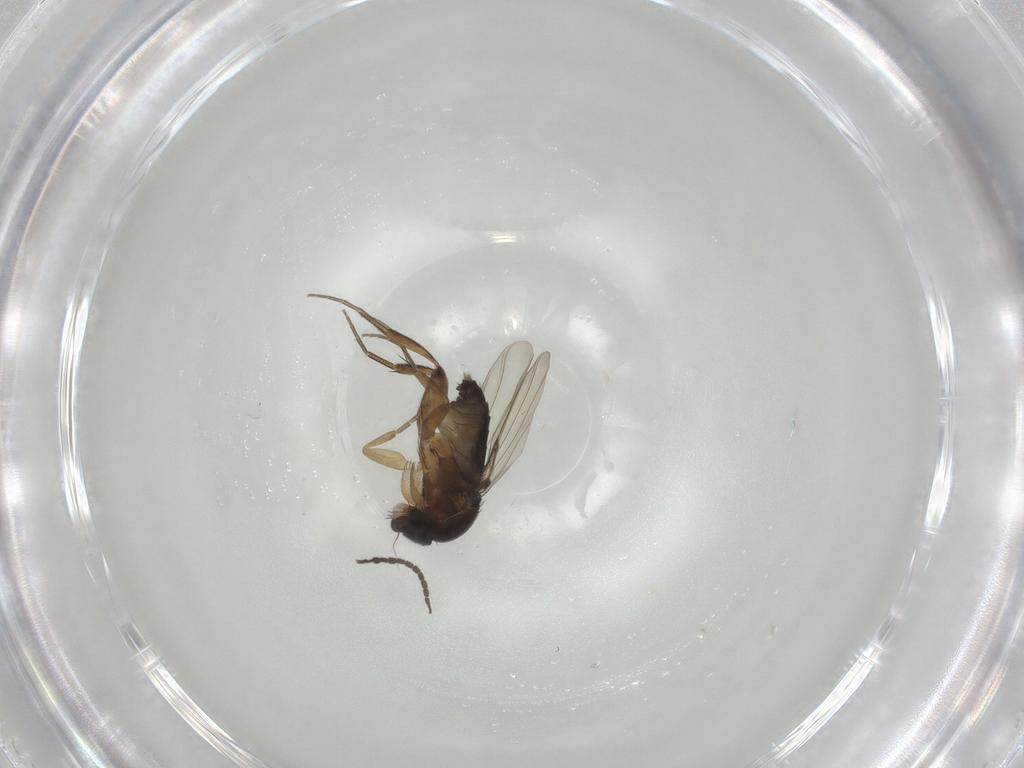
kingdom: Animalia
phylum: Arthropoda
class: Insecta
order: Diptera
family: Phoridae
